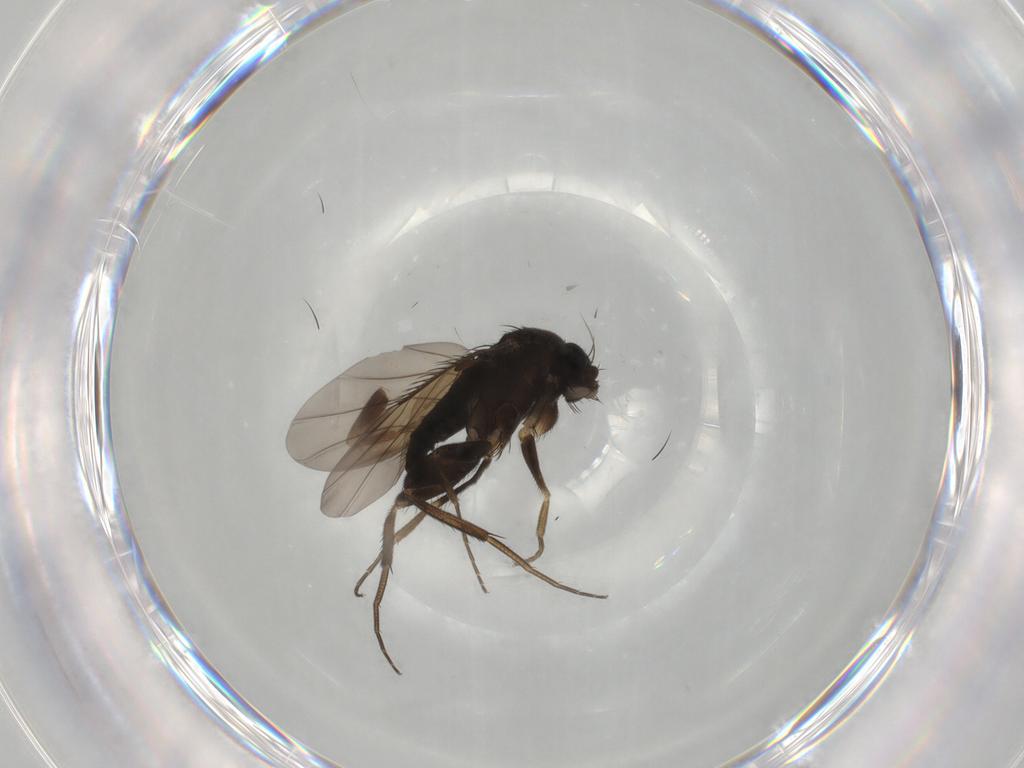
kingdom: Animalia
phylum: Arthropoda
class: Insecta
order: Diptera
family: Phoridae
